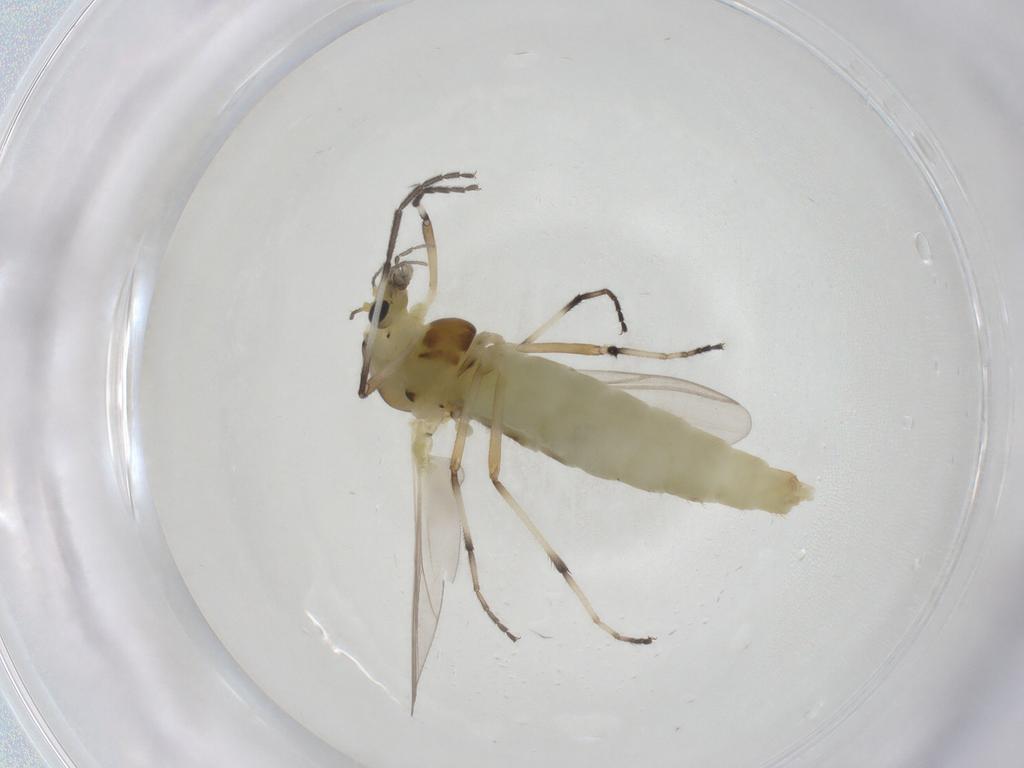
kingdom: Animalia
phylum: Arthropoda
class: Insecta
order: Diptera
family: Chironomidae
